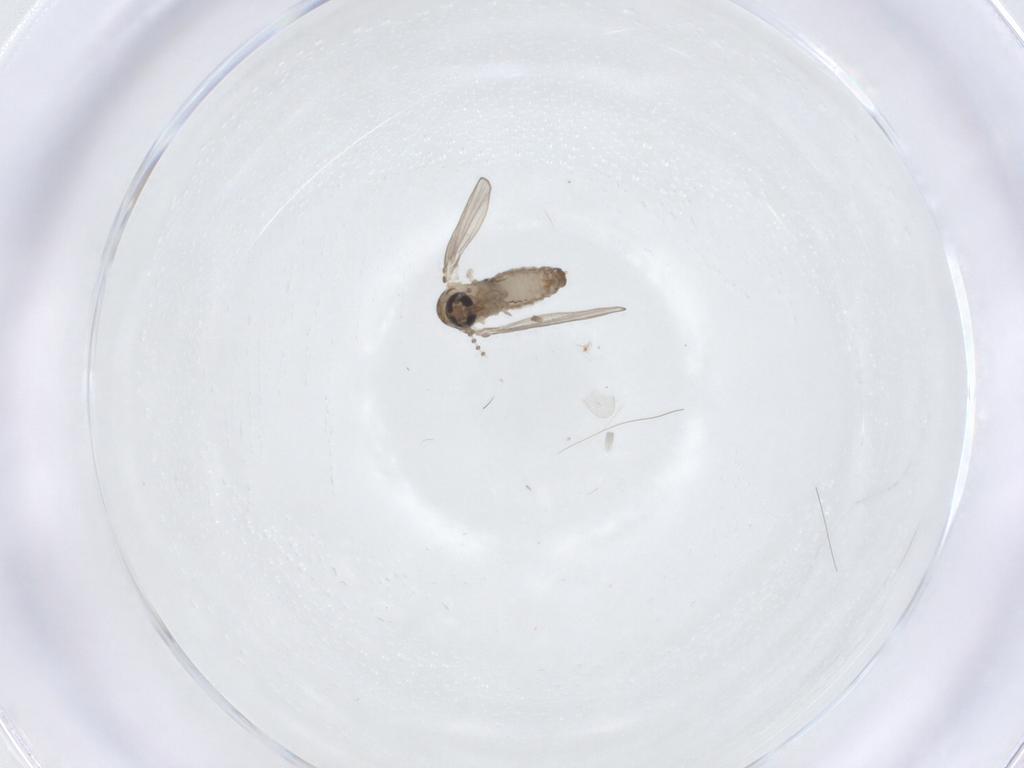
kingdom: Animalia
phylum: Arthropoda
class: Insecta
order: Diptera
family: Psychodidae
